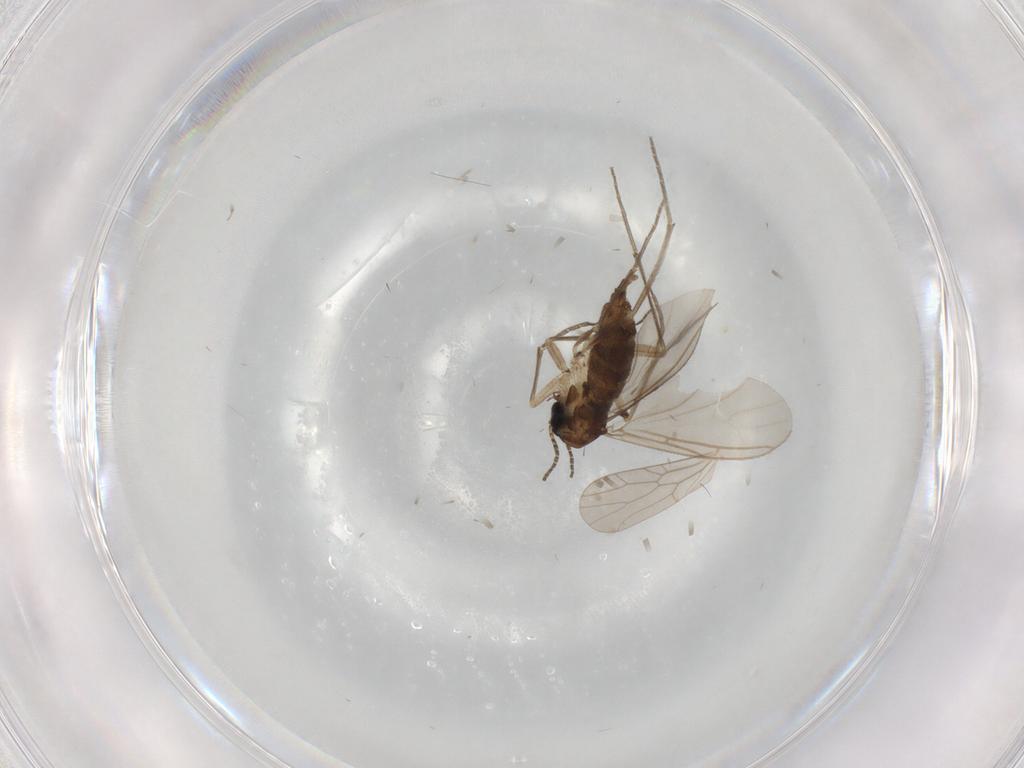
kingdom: Animalia
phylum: Arthropoda
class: Insecta
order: Diptera
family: Sciaridae
